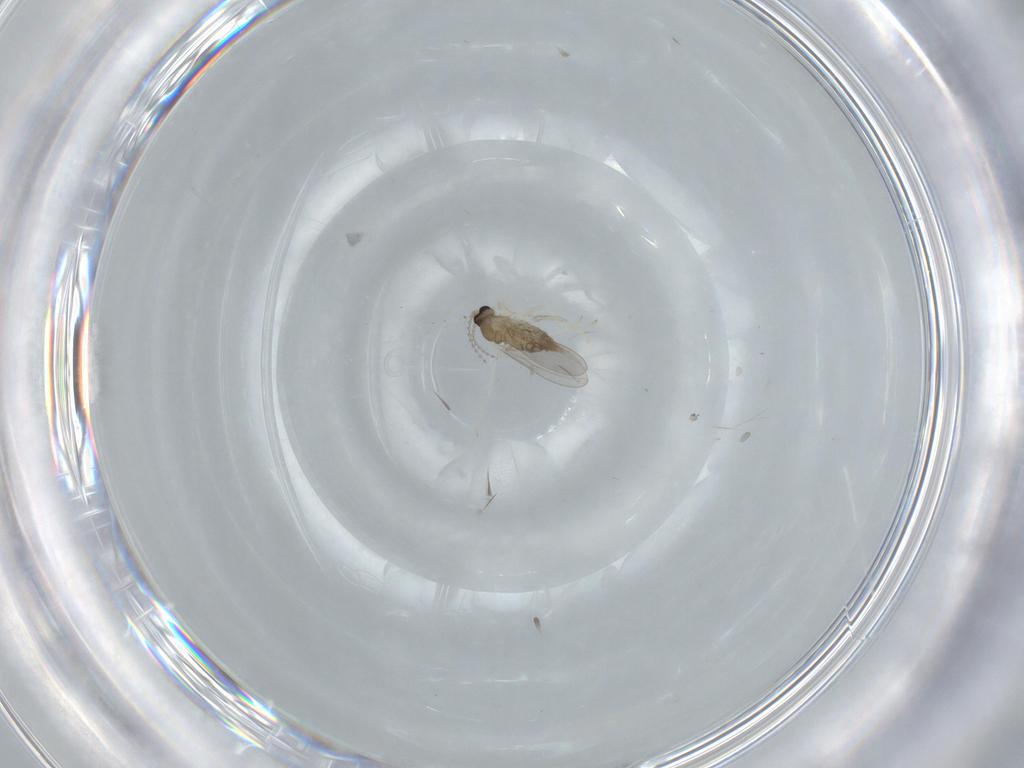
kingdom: Animalia
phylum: Arthropoda
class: Insecta
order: Diptera
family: Cecidomyiidae
